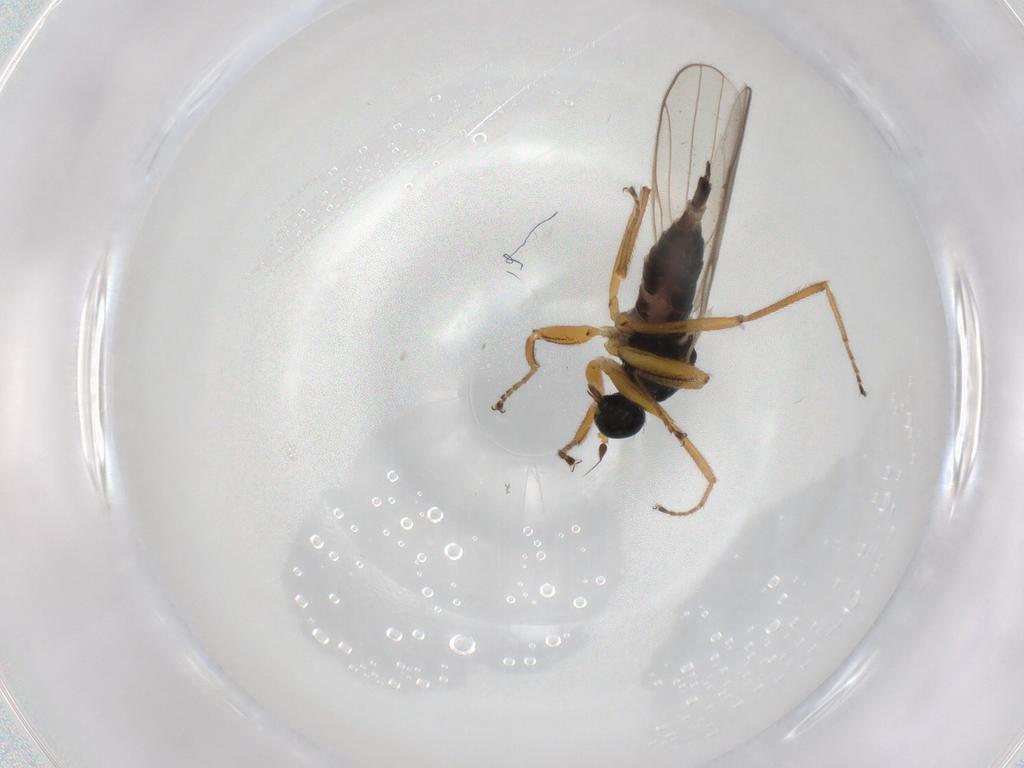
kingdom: Animalia
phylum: Arthropoda
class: Insecta
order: Diptera
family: Hybotidae
